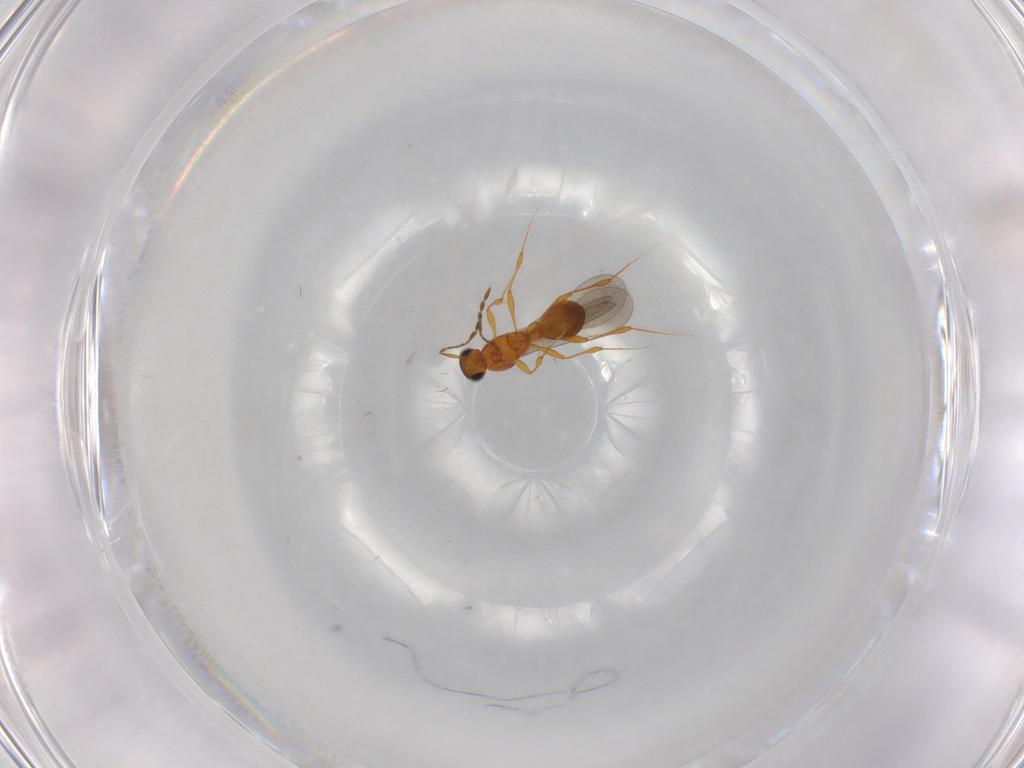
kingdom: Animalia
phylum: Arthropoda
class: Insecta
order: Hymenoptera
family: Platygastridae
